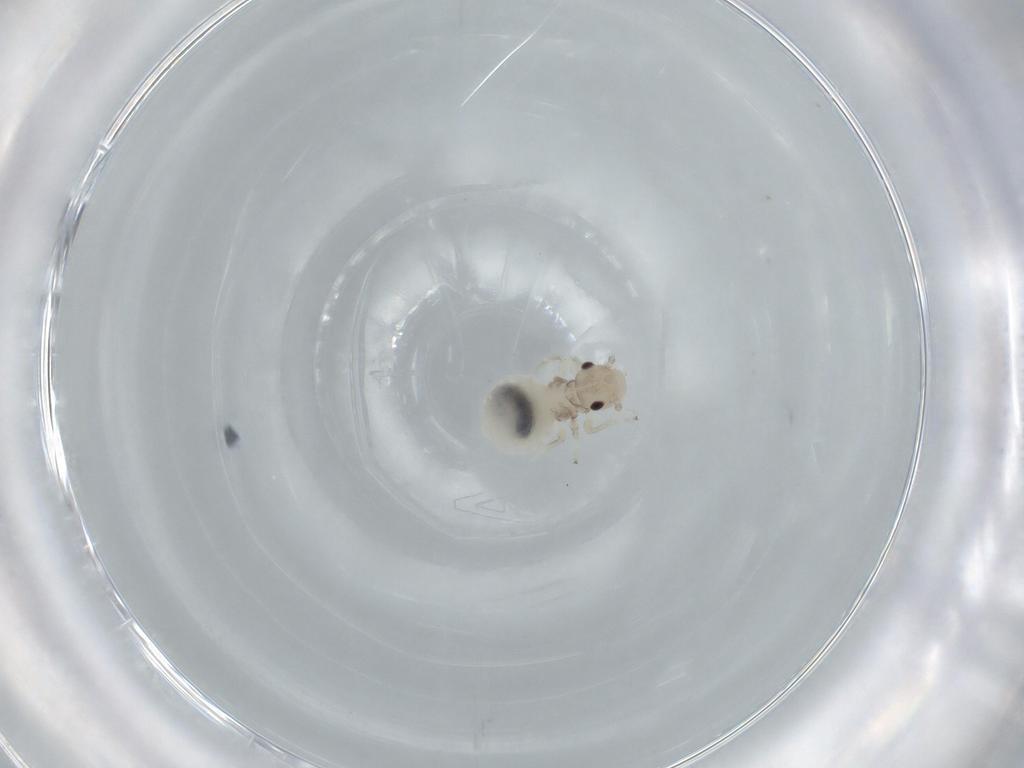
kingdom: Animalia
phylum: Arthropoda
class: Insecta
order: Psocodea
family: Amphipsocidae
